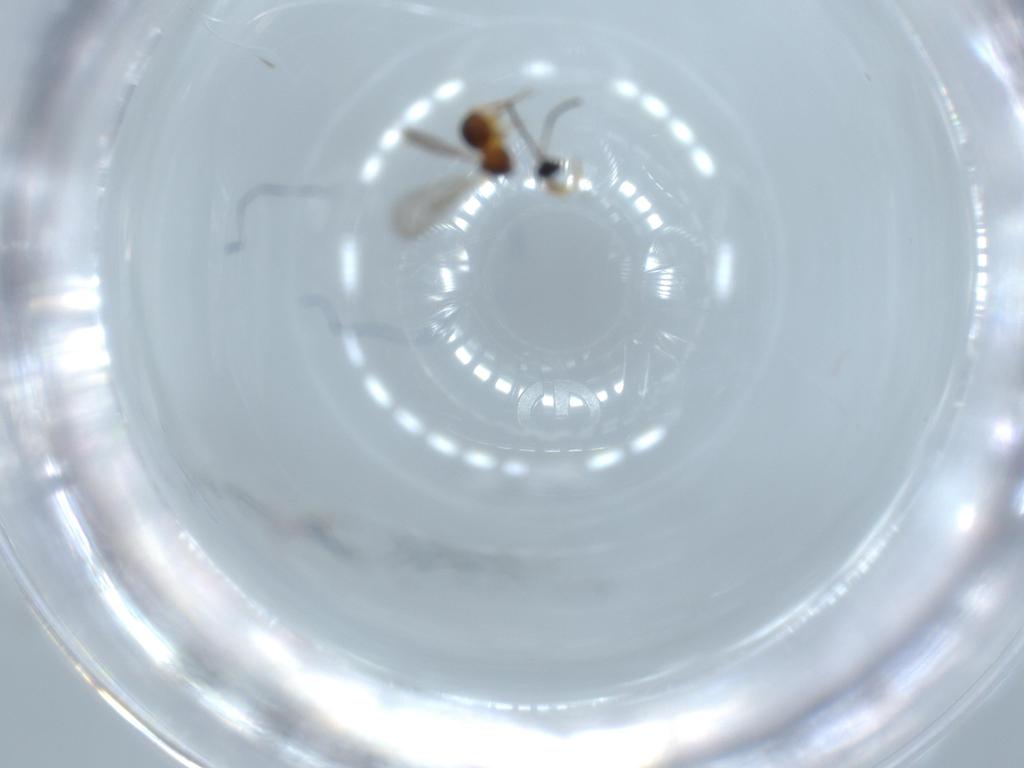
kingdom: Animalia
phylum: Arthropoda
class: Insecta
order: Hymenoptera
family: Figitidae
